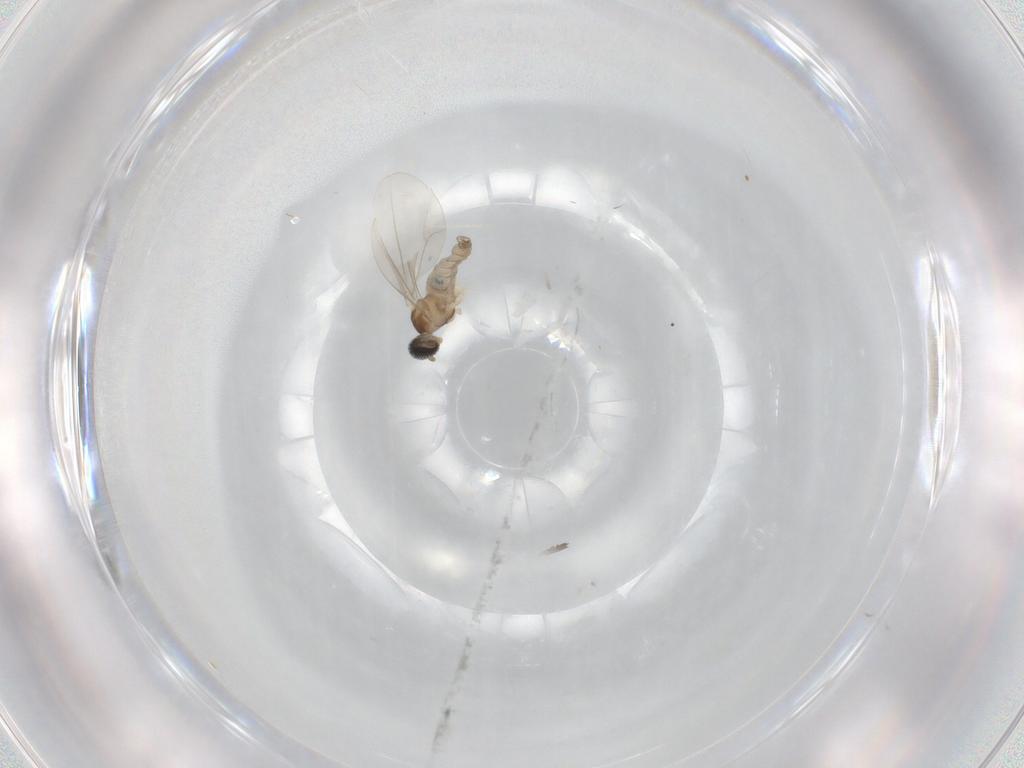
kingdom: Animalia
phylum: Arthropoda
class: Insecta
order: Diptera
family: Cecidomyiidae
